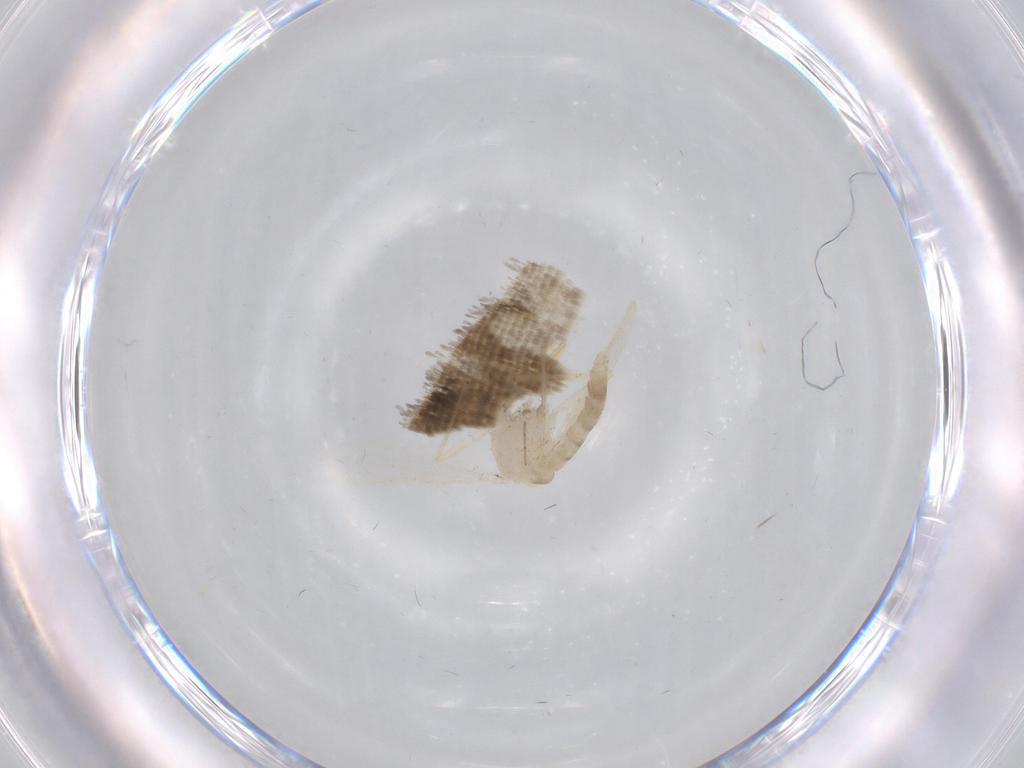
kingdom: Animalia
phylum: Arthropoda
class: Insecta
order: Diptera
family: Chironomidae
